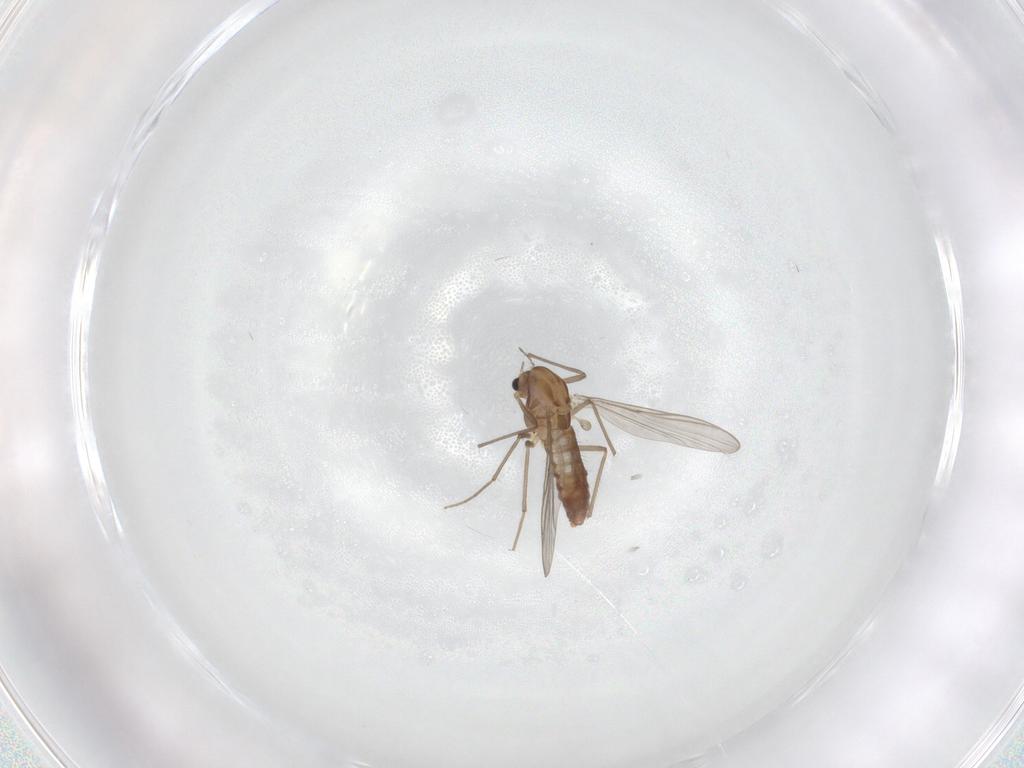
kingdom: Animalia
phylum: Arthropoda
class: Insecta
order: Diptera
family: Chironomidae
